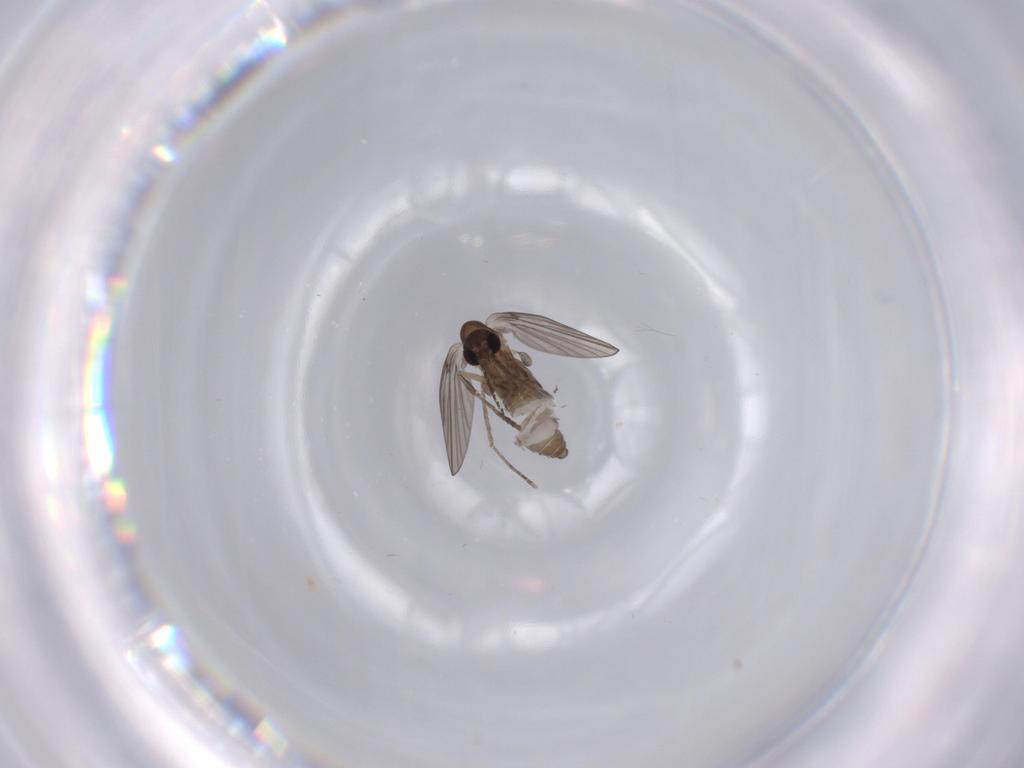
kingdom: Animalia
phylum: Arthropoda
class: Insecta
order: Diptera
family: Psychodidae
